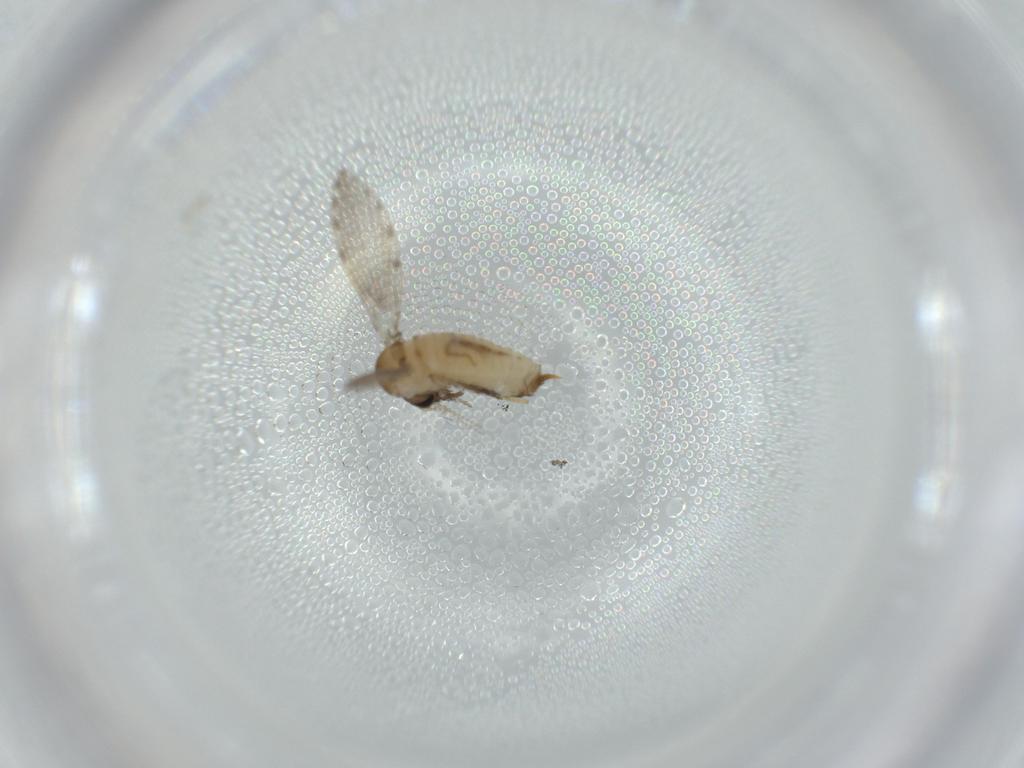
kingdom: Animalia
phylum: Arthropoda
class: Insecta
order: Diptera
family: Psychodidae
